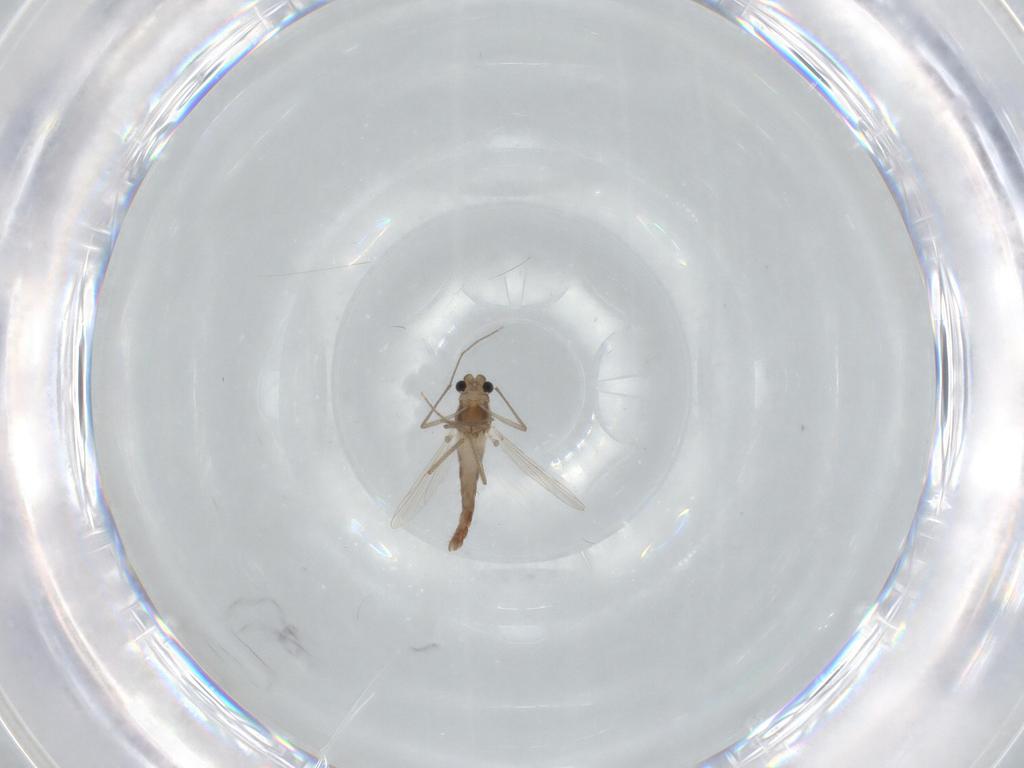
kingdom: Animalia
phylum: Arthropoda
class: Insecta
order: Diptera
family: Chironomidae
